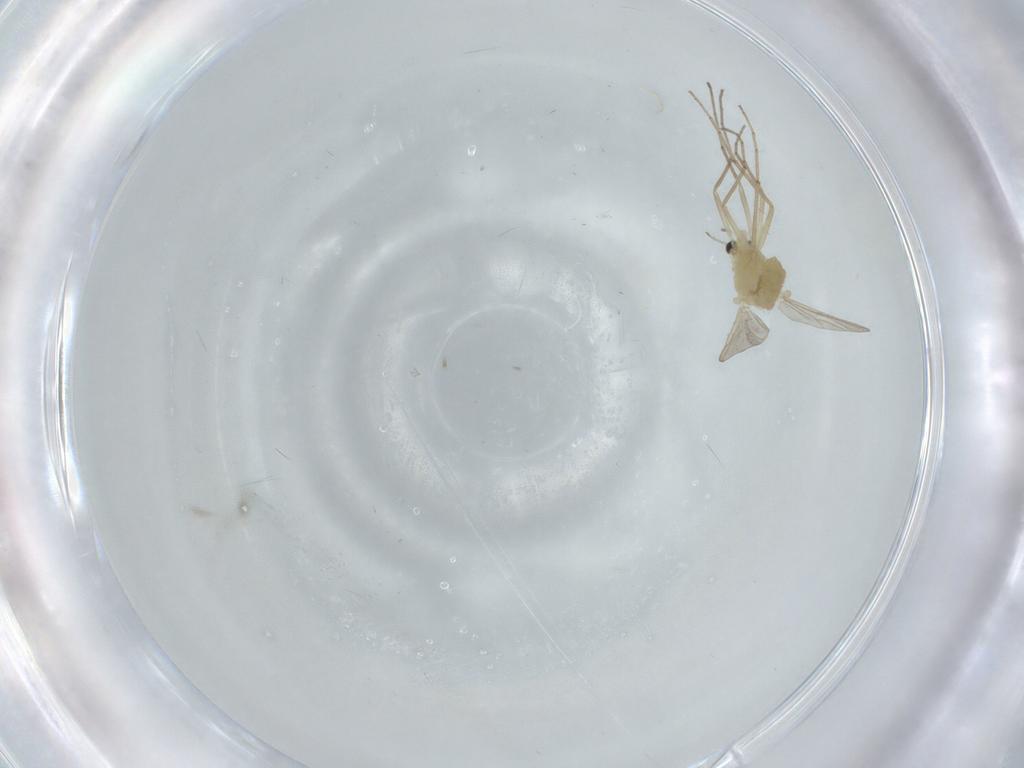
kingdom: Animalia
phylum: Arthropoda
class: Insecta
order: Diptera
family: Chironomidae
